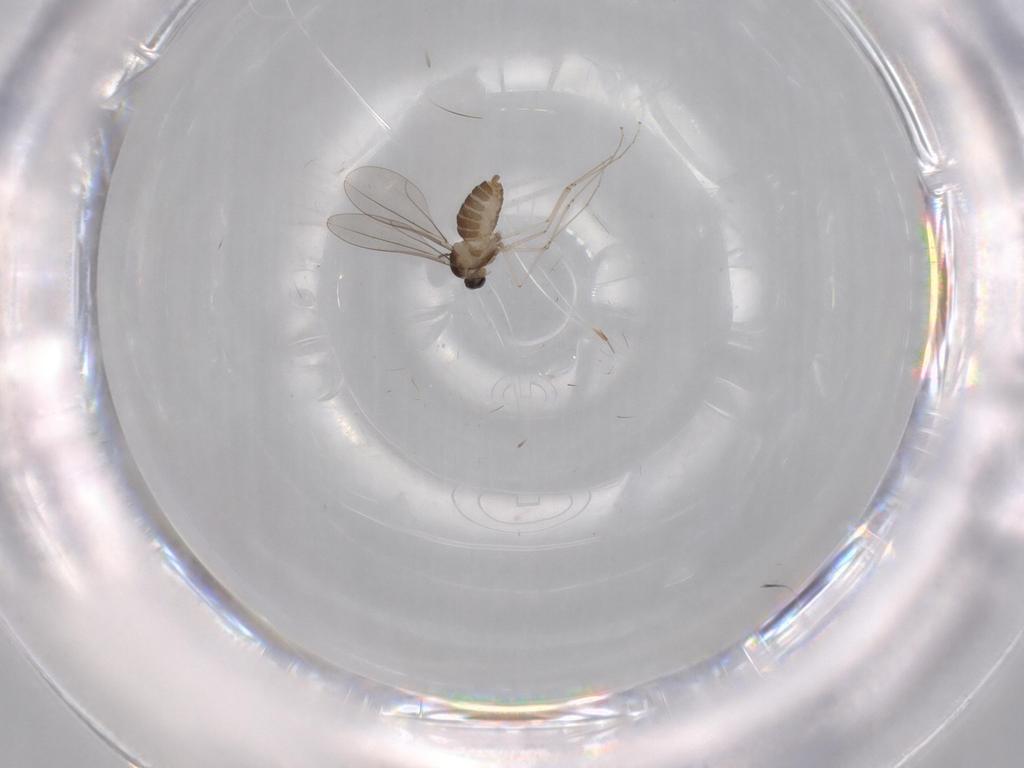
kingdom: Animalia
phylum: Arthropoda
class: Insecta
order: Diptera
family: Cecidomyiidae
